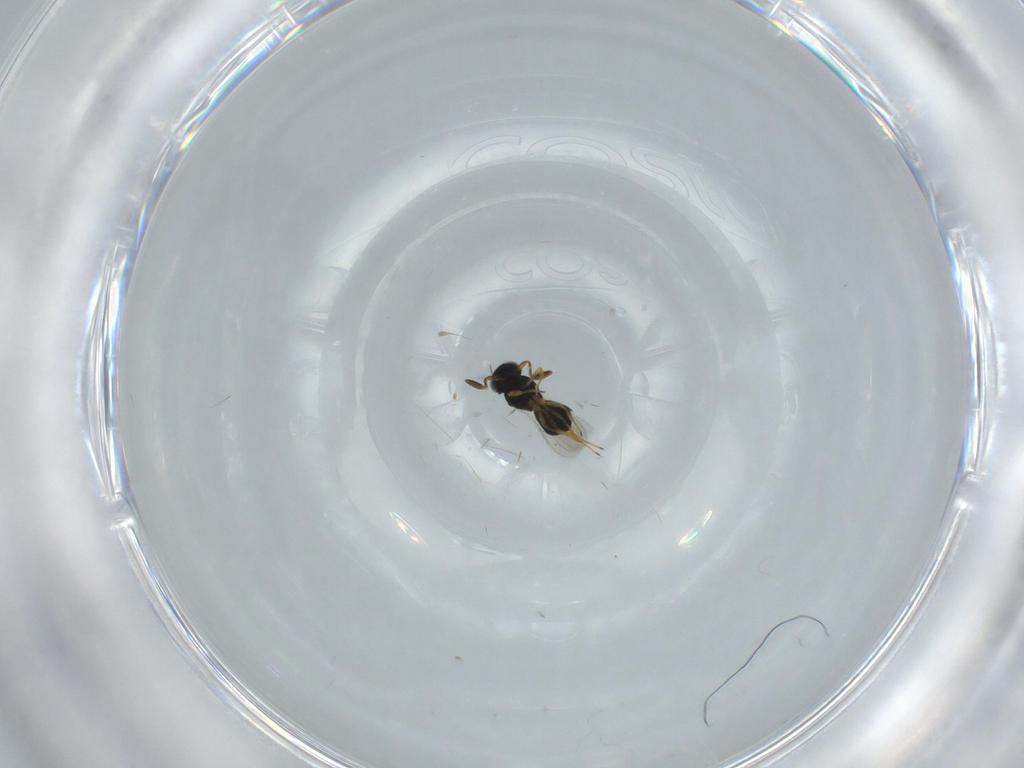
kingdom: Animalia
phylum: Arthropoda
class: Insecta
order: Hymenoptera
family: Scelionidae
